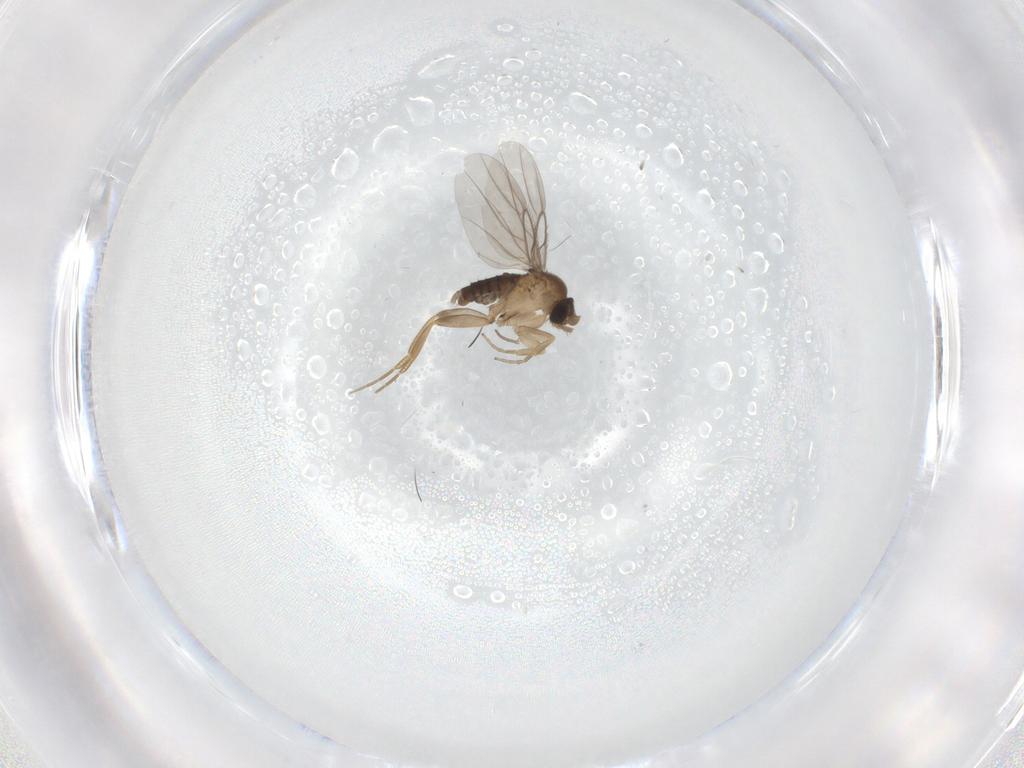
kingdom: Animalia
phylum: Arthropoda
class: Insecta
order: Diptera
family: Phoridae
